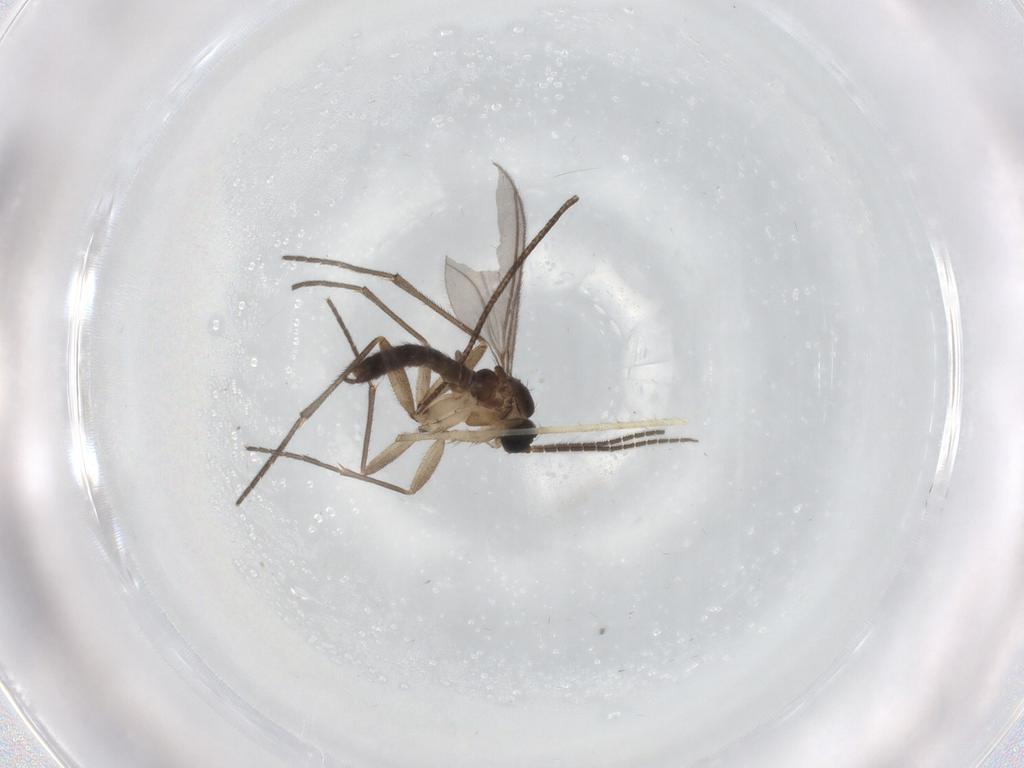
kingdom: Animalia
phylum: Arthropoda
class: Insecta
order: Diptera
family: Sciaridae
